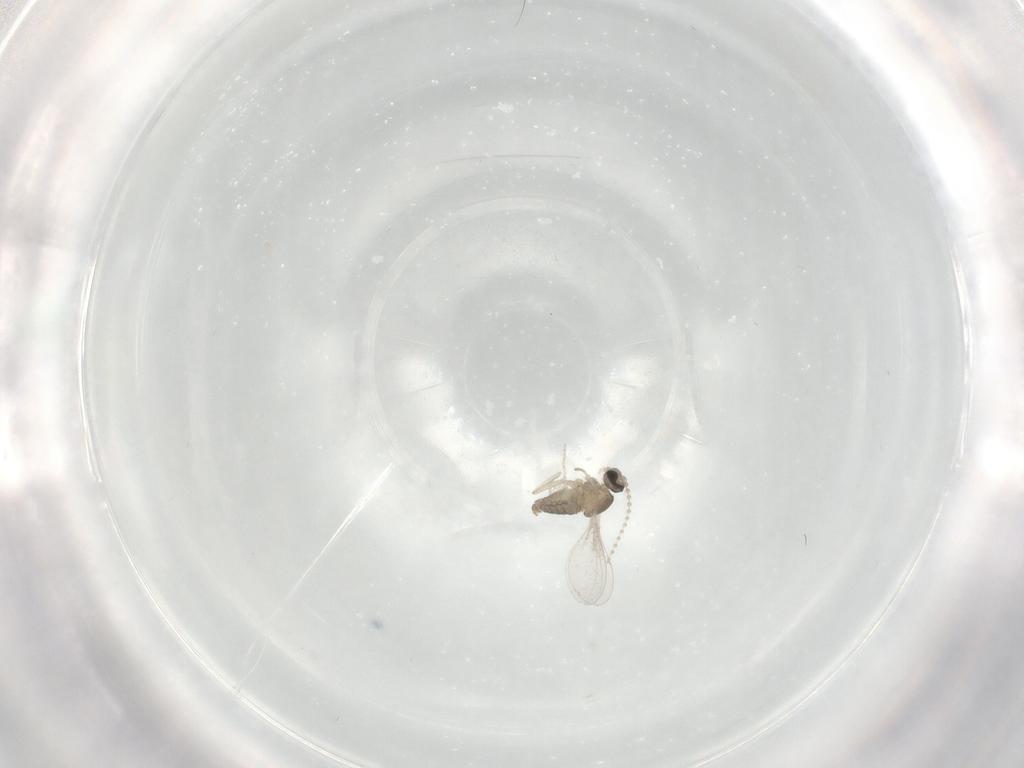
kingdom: Animalia
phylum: Arthropoda
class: Insecta
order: Diptera
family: Cecidomyiidae
